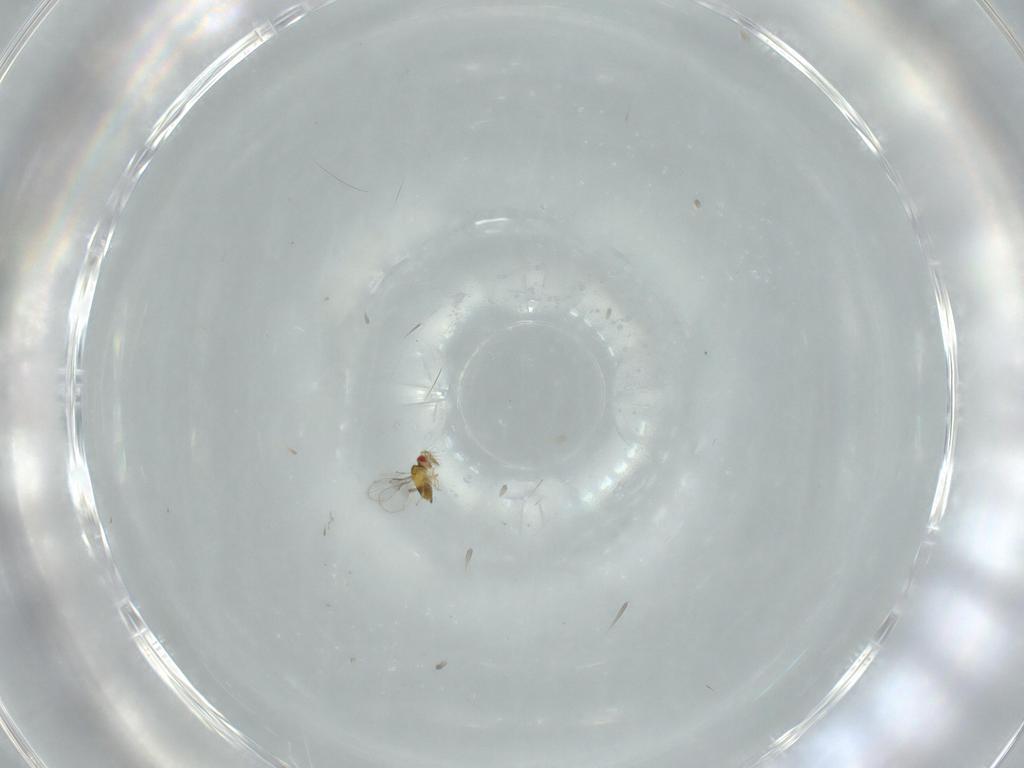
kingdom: Animalia
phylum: Arthropoda
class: Insecta
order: Hymenoptera
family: Trichogrammatidae
